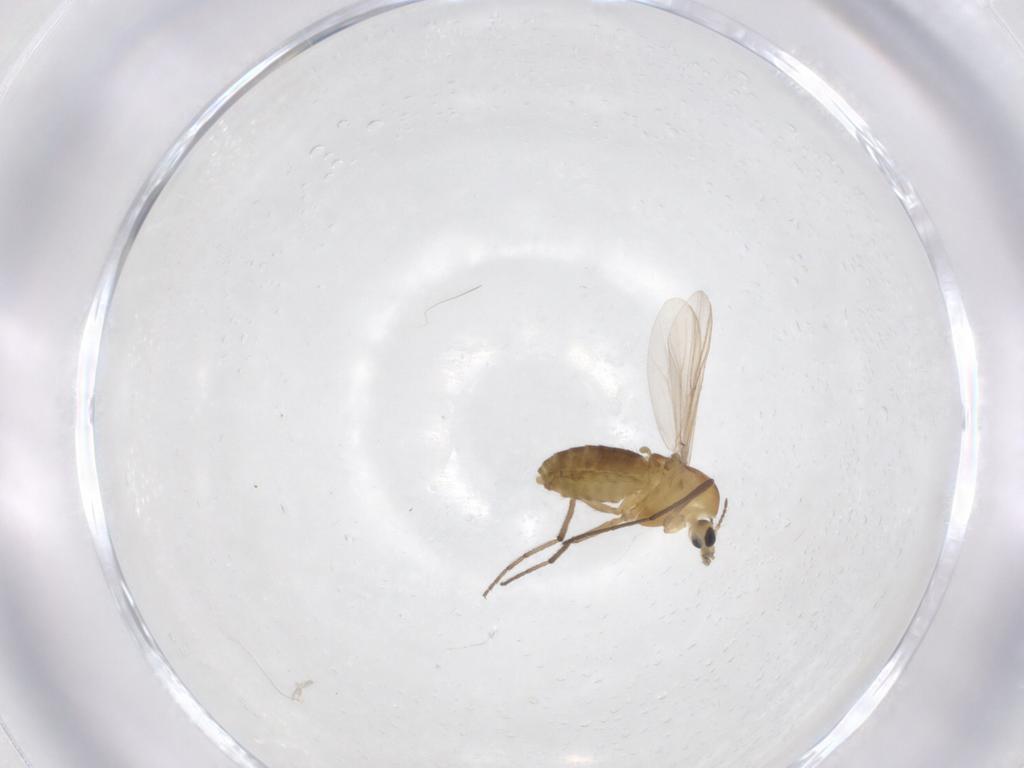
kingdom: Animalia
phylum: Arthropoda
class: Insecta
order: Diptera
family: Chironomidae
